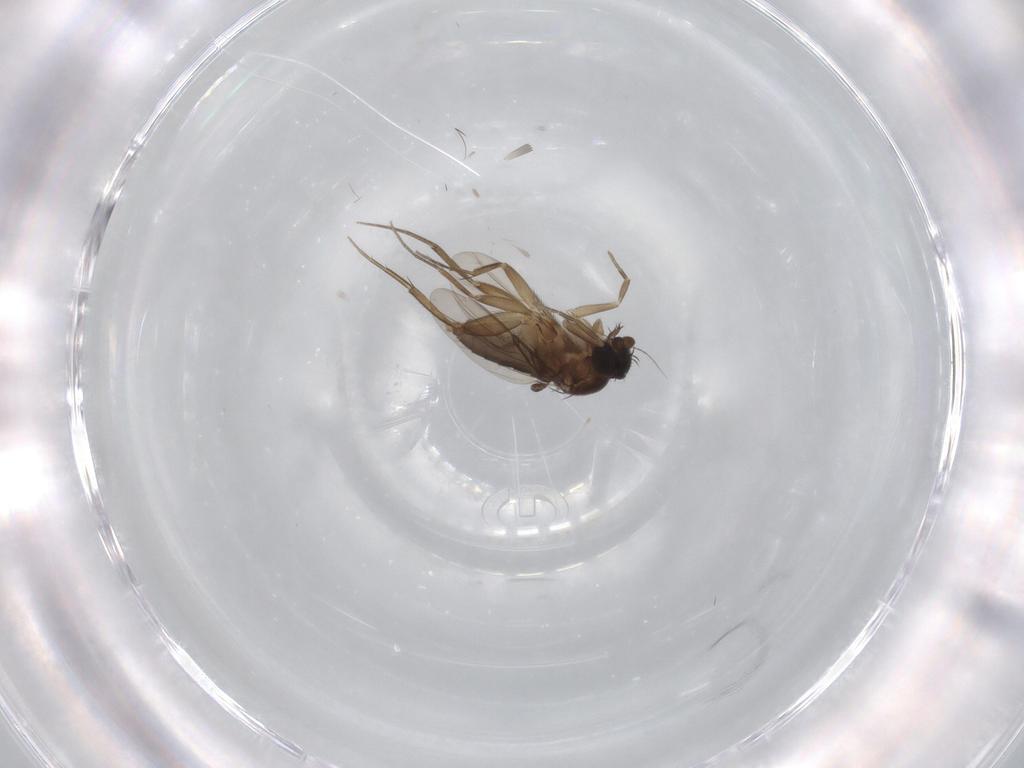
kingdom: Animalia
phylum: Arthropoda
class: Insecta
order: Diptera
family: Phoridae
